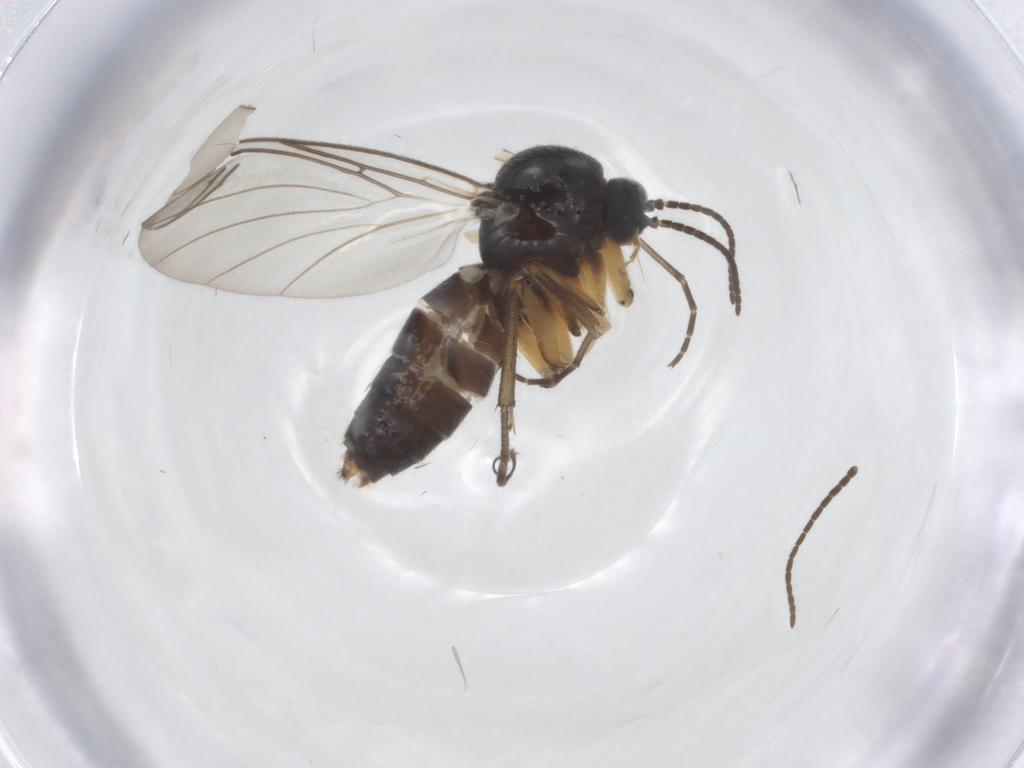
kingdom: Animalia
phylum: Arthropoda
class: Insecta
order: Diptera
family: Mycetophilidae
